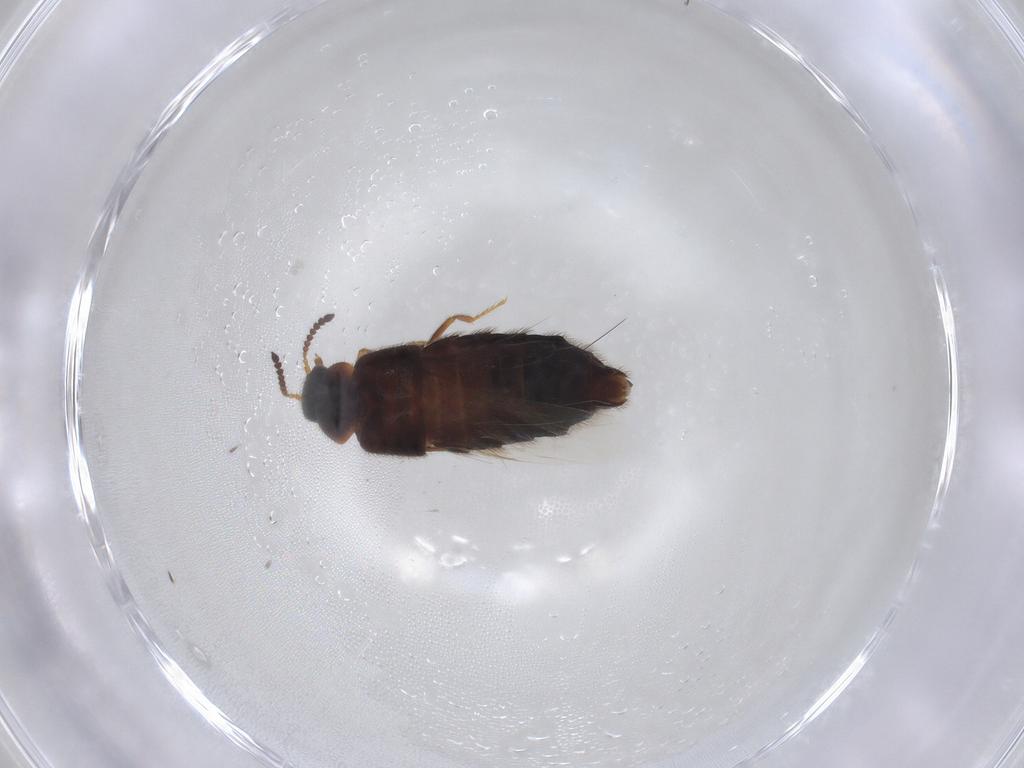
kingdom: Animalia
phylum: Arthropoda
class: Insecta
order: Coleoptera
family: Staphylinidae
